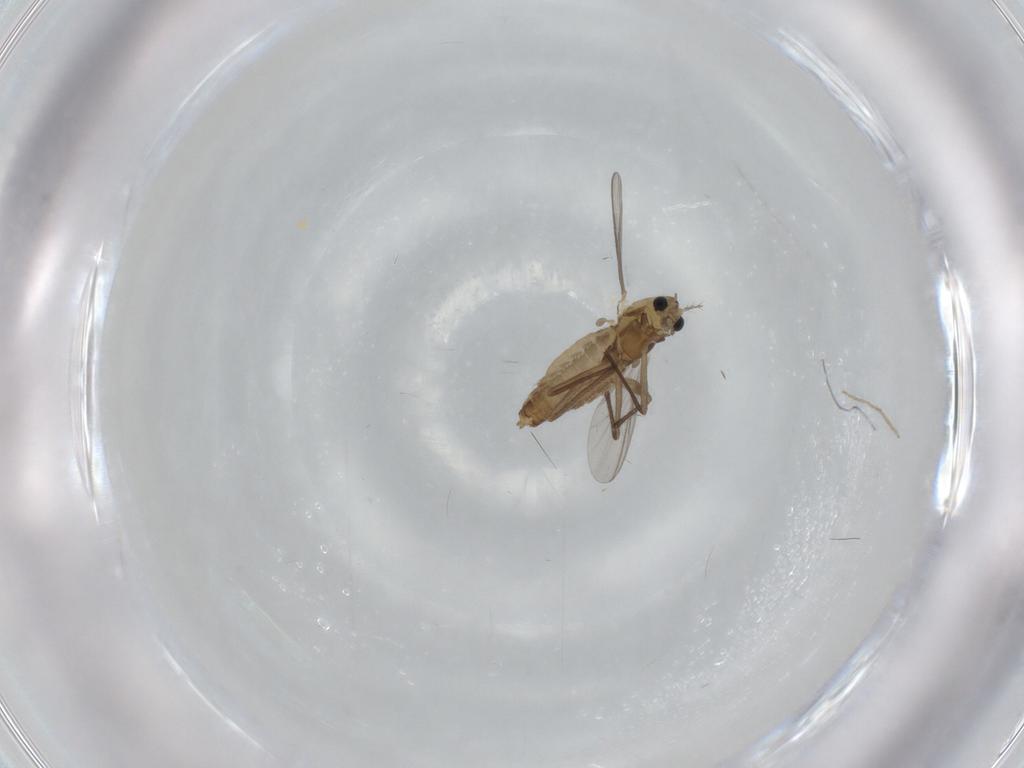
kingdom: Animalia
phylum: Arthropoda
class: Insecta
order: Diptera
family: Chironomidae
